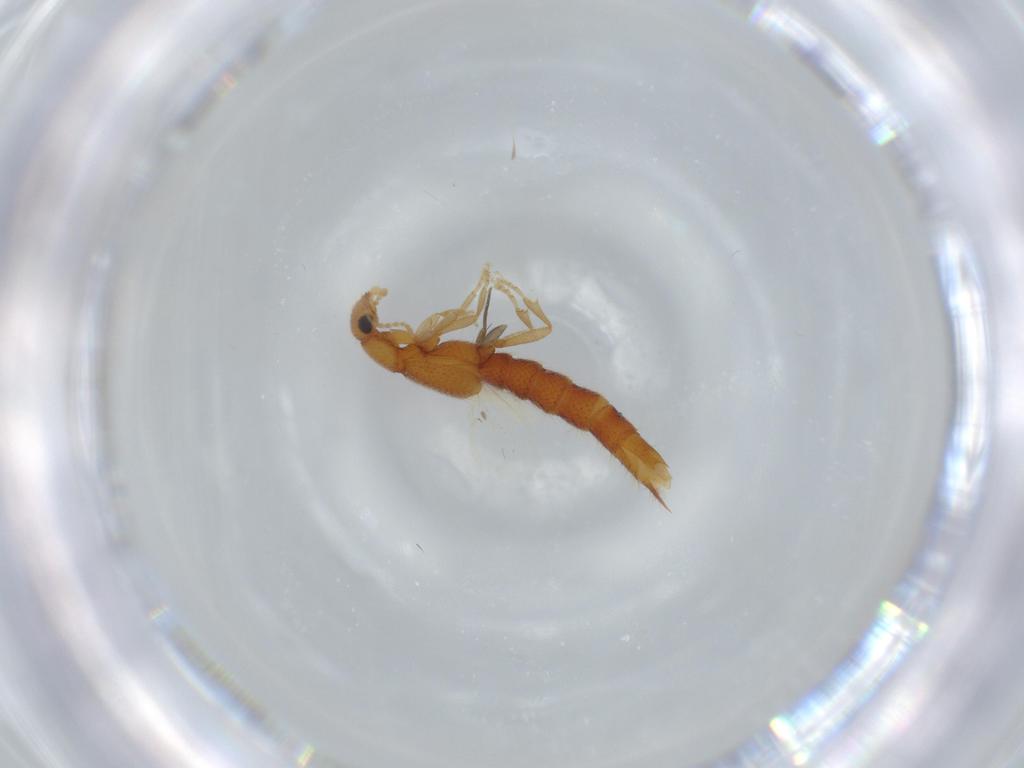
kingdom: Animalia
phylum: Arthropoda
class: Insecta
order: Coleoptera
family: Staphylinidae
